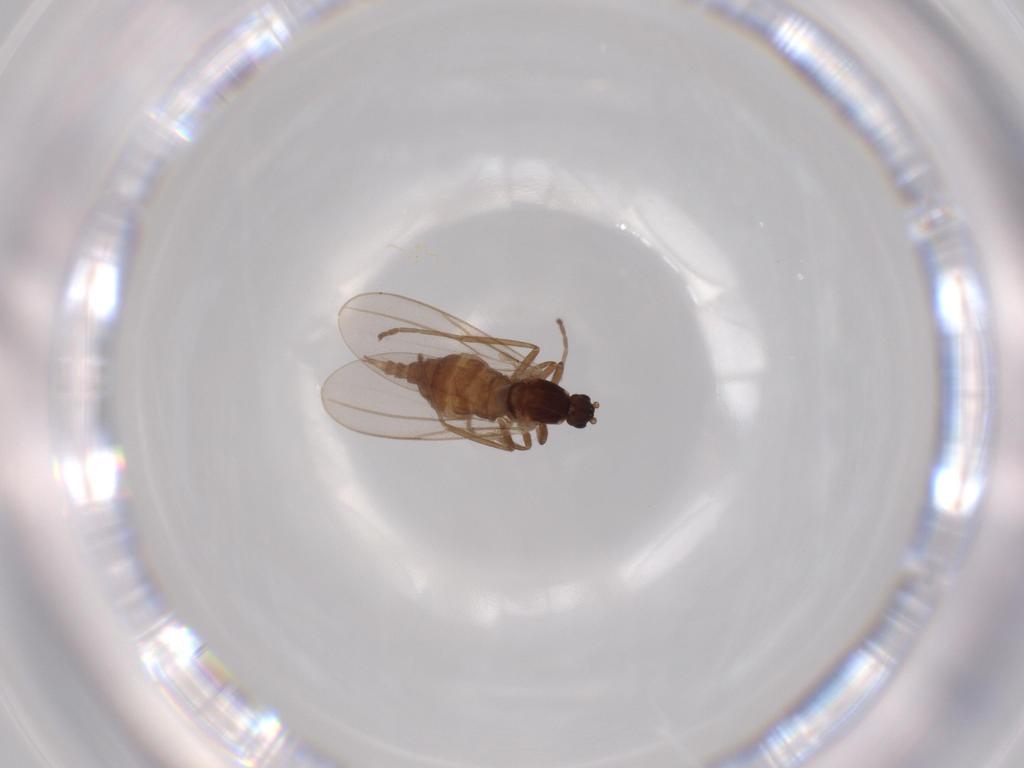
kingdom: Animalia
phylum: Arthropoda
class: Insecta
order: Diptera
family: Cecidomyiidae
